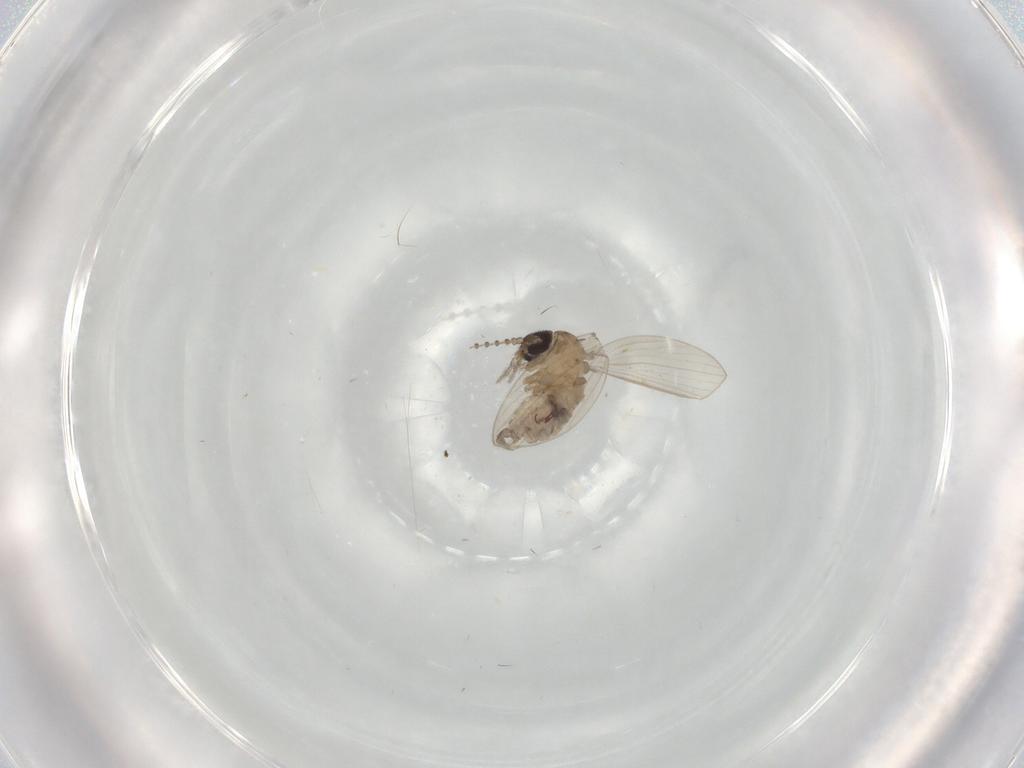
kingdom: Animalia
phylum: Arthropoda
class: Insecta
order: Diptera
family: Psychodidae
